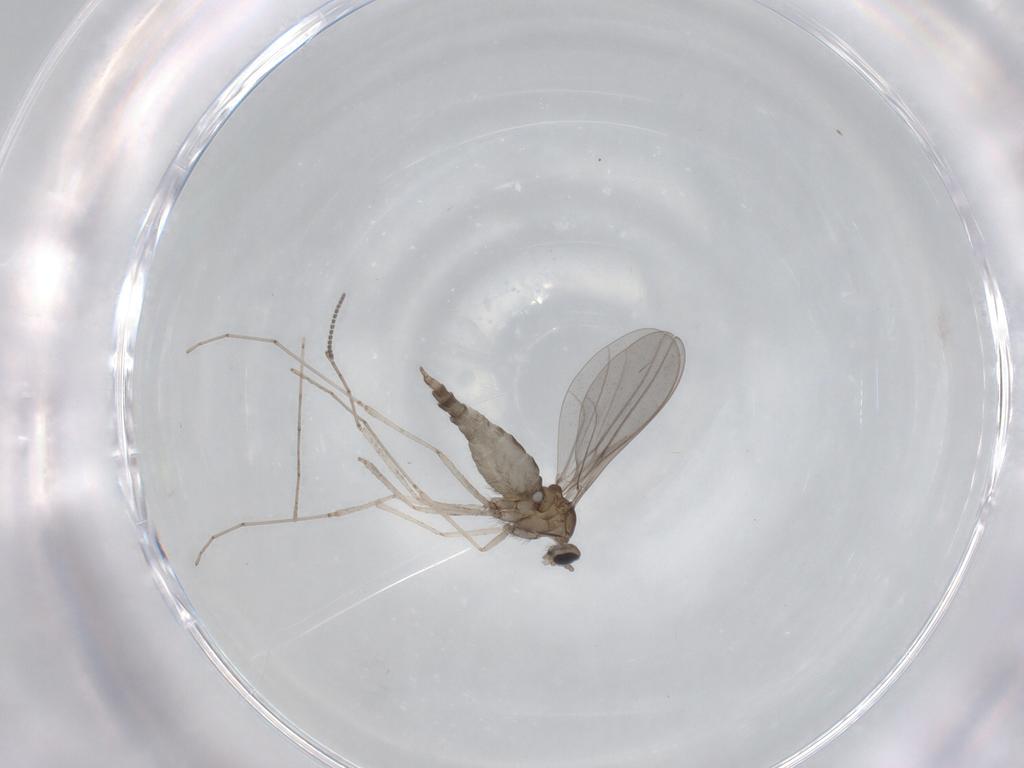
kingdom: Animalia
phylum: Arthropoda
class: Insecta
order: Diptera
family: Cecidomyiidae
